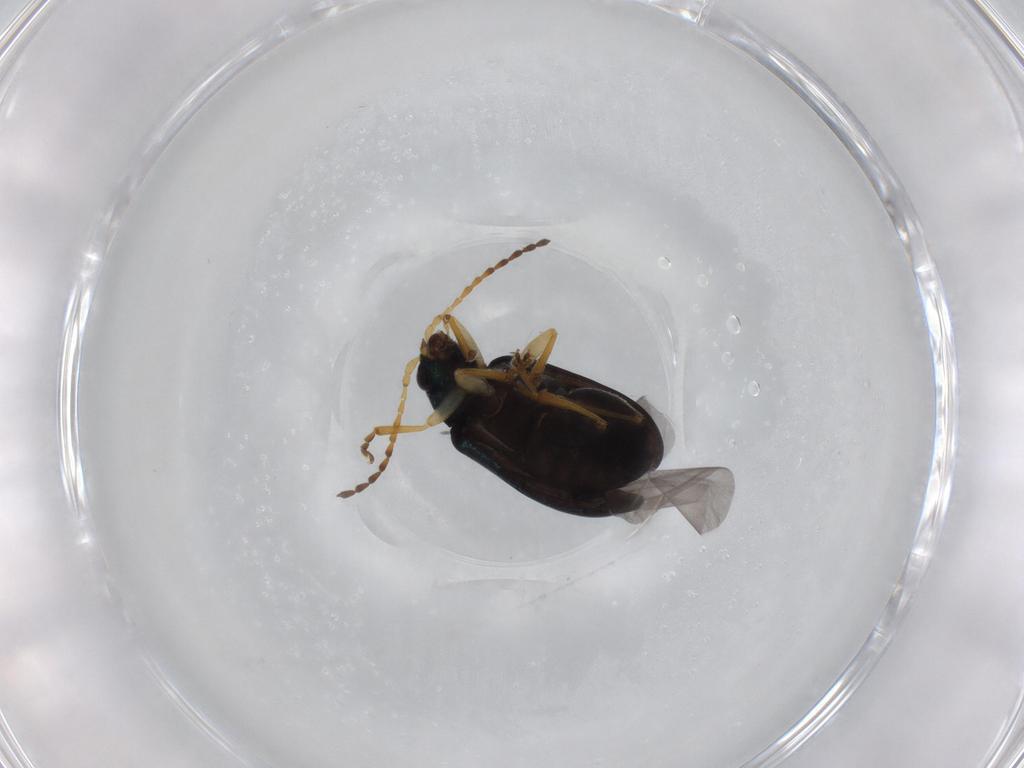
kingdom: Animalia
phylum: Arthropoda
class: Insecta
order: Coleoptera
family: Chrysomelidae
